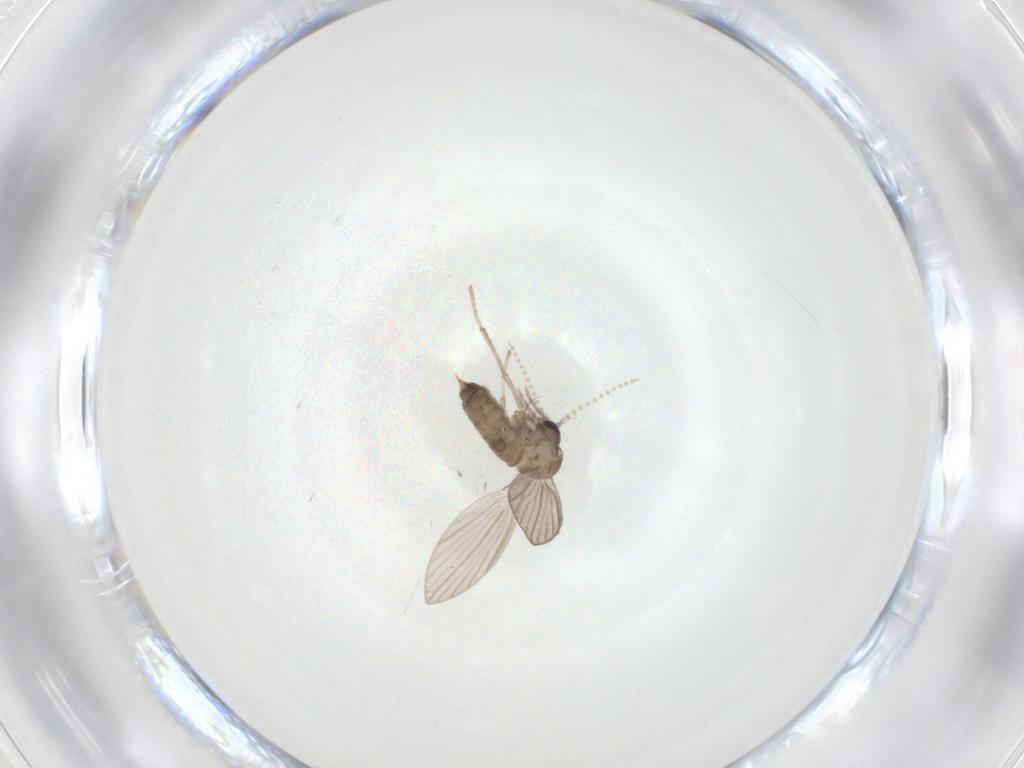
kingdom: Animalia
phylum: Arthropoda
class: Insecta
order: Diptera
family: Psychodidae
